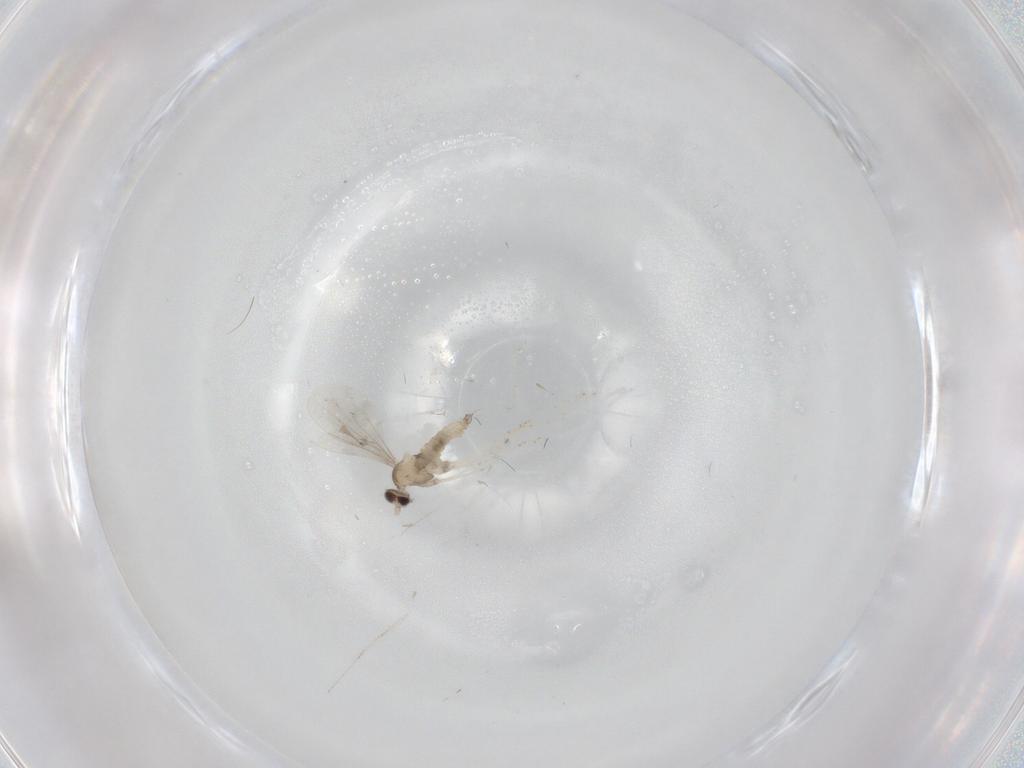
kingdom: Animalia
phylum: Arthropoda
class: Insecta
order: Diptera
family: Cecidomyiidae
